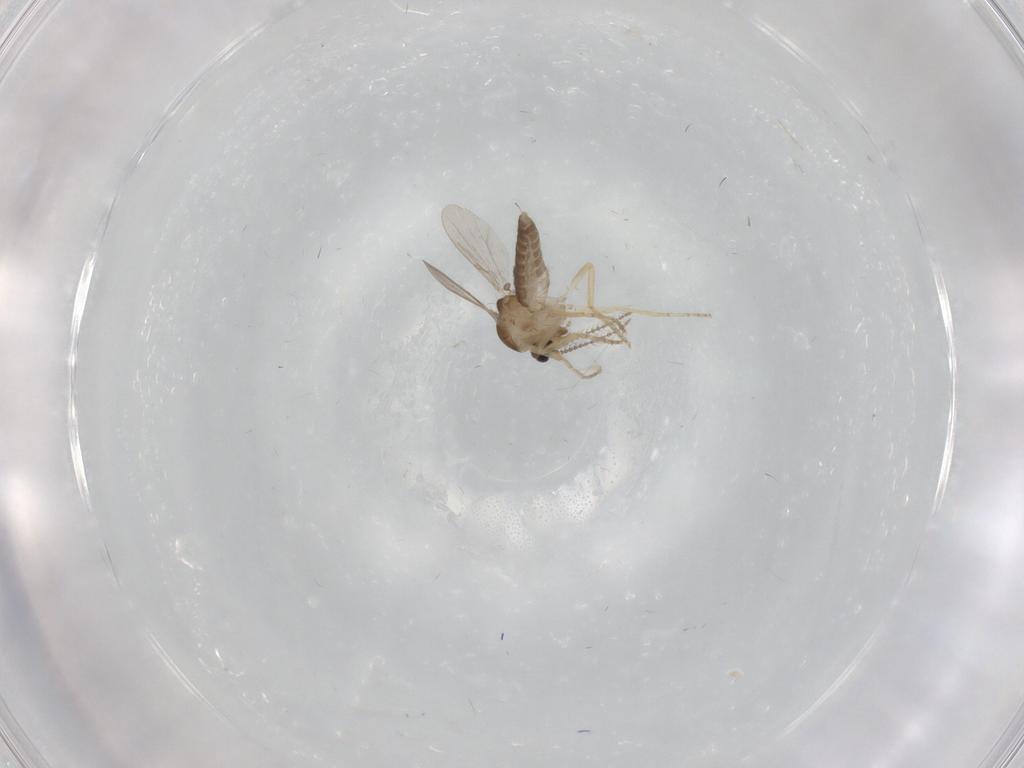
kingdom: Animalia
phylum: Arthropoda
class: Insecta
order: Diptera
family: Ceratopogonidae
